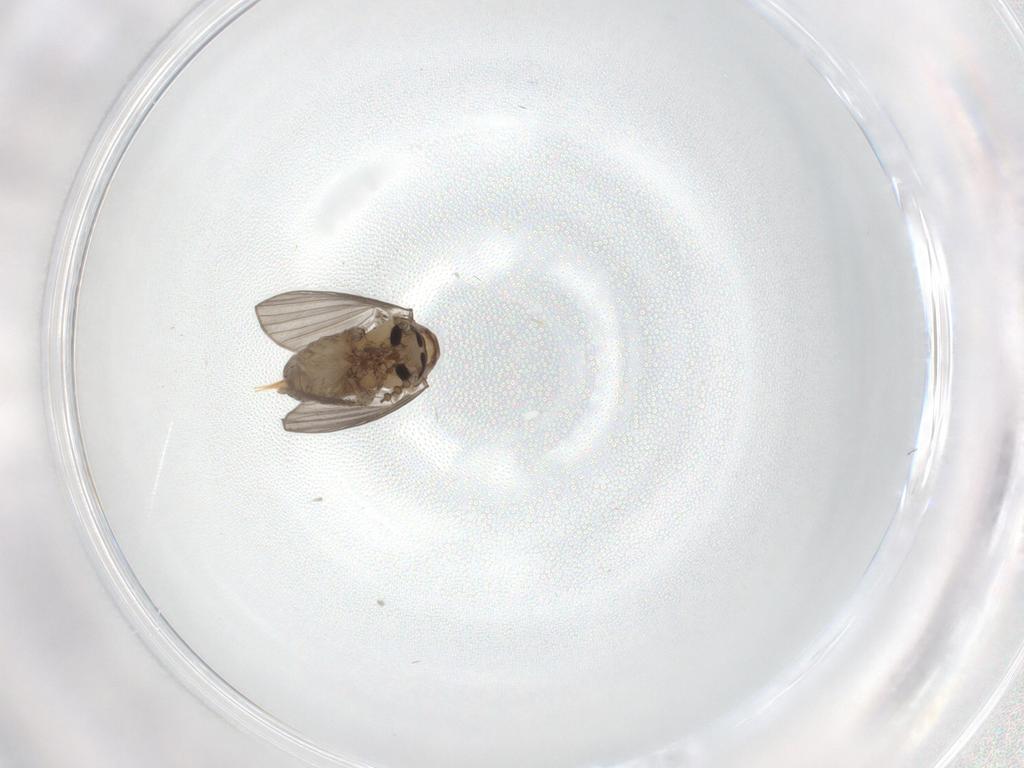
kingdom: Animalia
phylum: Arthropoda
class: Insecta
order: Diptera
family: Psychodidae
